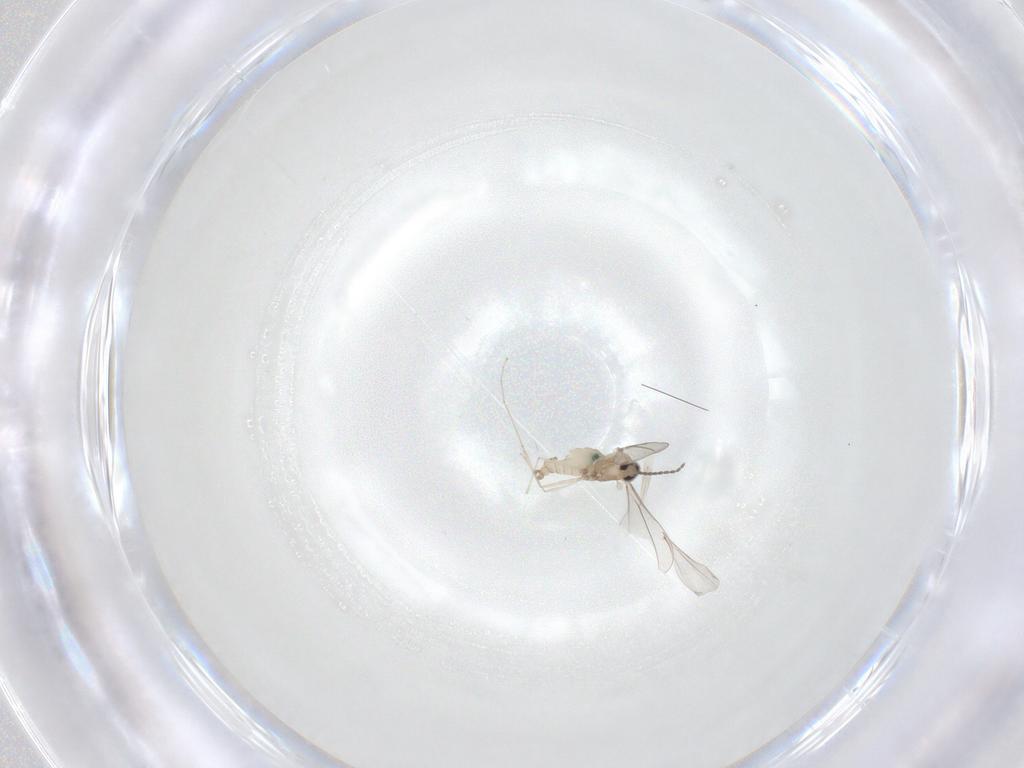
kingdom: Animalia
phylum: Arthropoda
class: Insecta
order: Diptera
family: Cecidomyiidae
